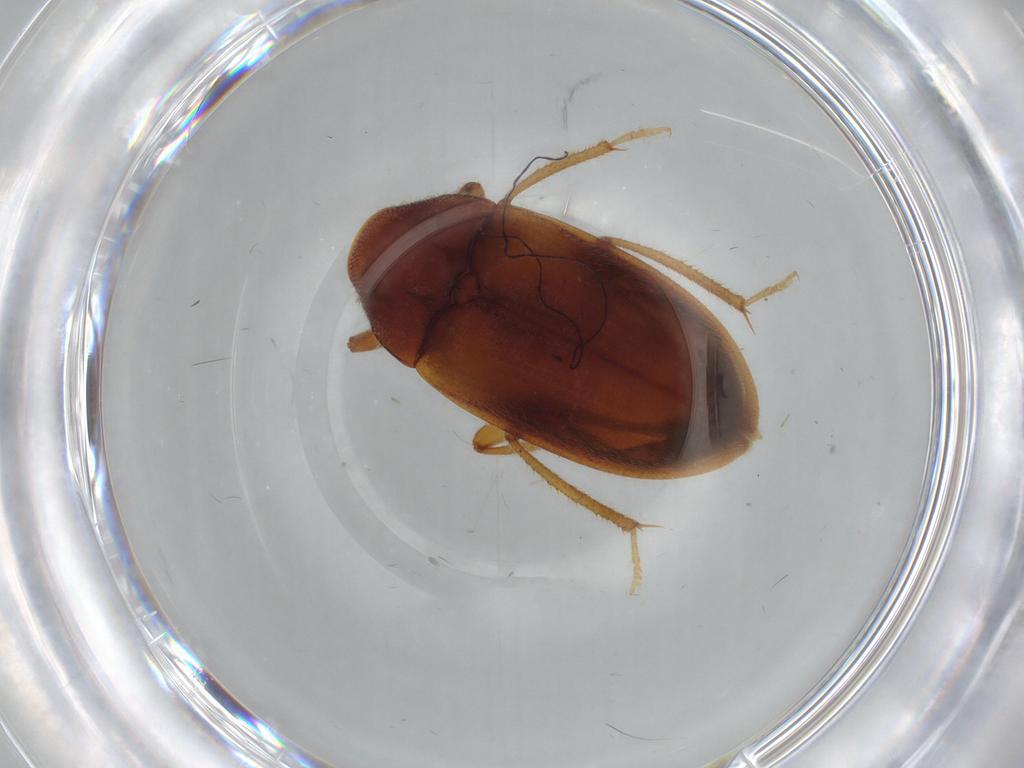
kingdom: Animalia
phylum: Arthropoda
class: Insecta
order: Coleoptera
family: Ptilodactylidae
